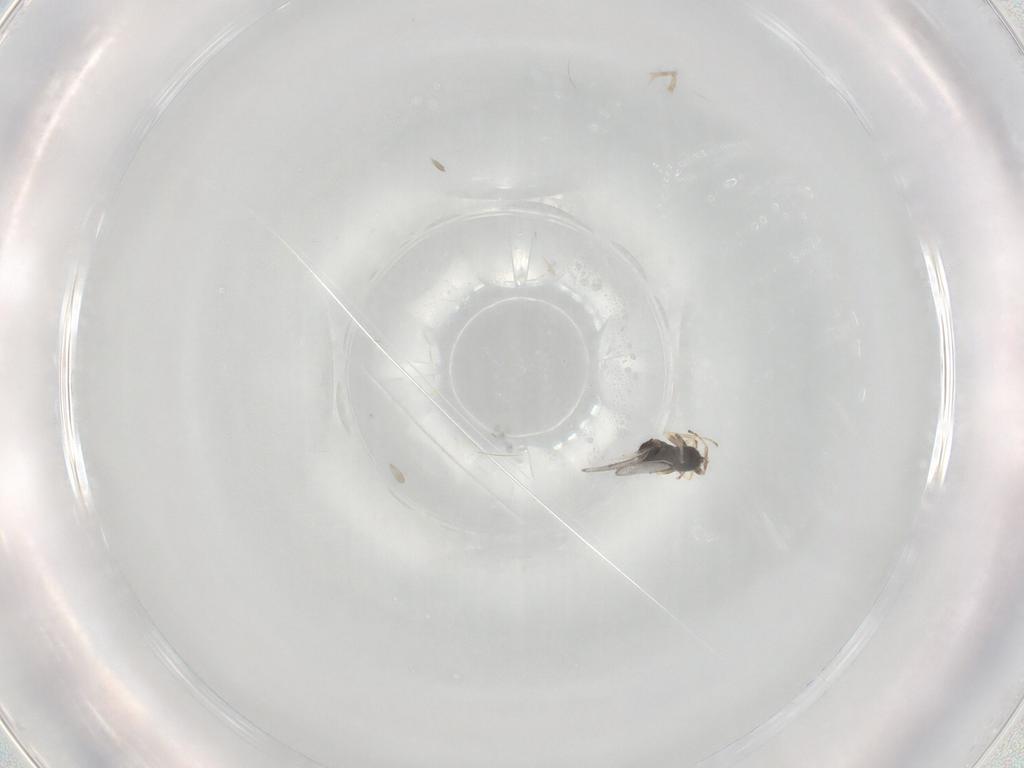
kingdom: Animalia
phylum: Arthropoda
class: Insecta
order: Hymenoptera
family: Eulophidae
